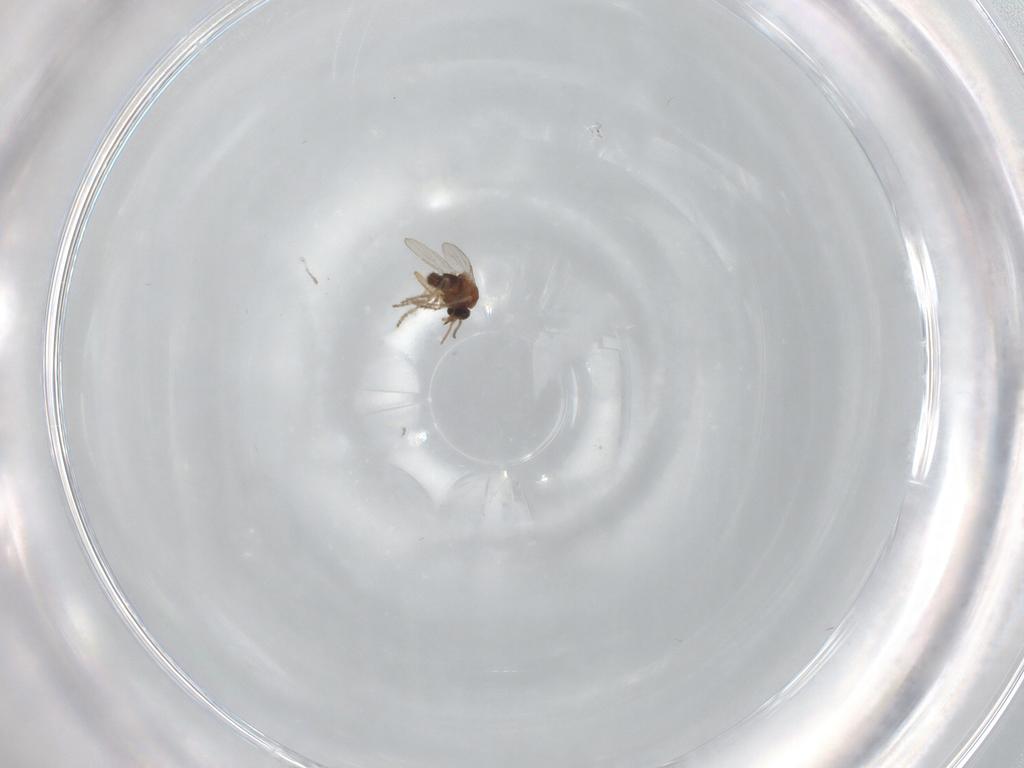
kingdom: Animalia
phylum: Arthropoda
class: Insecta
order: Diptera
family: Ceratopogonidae
